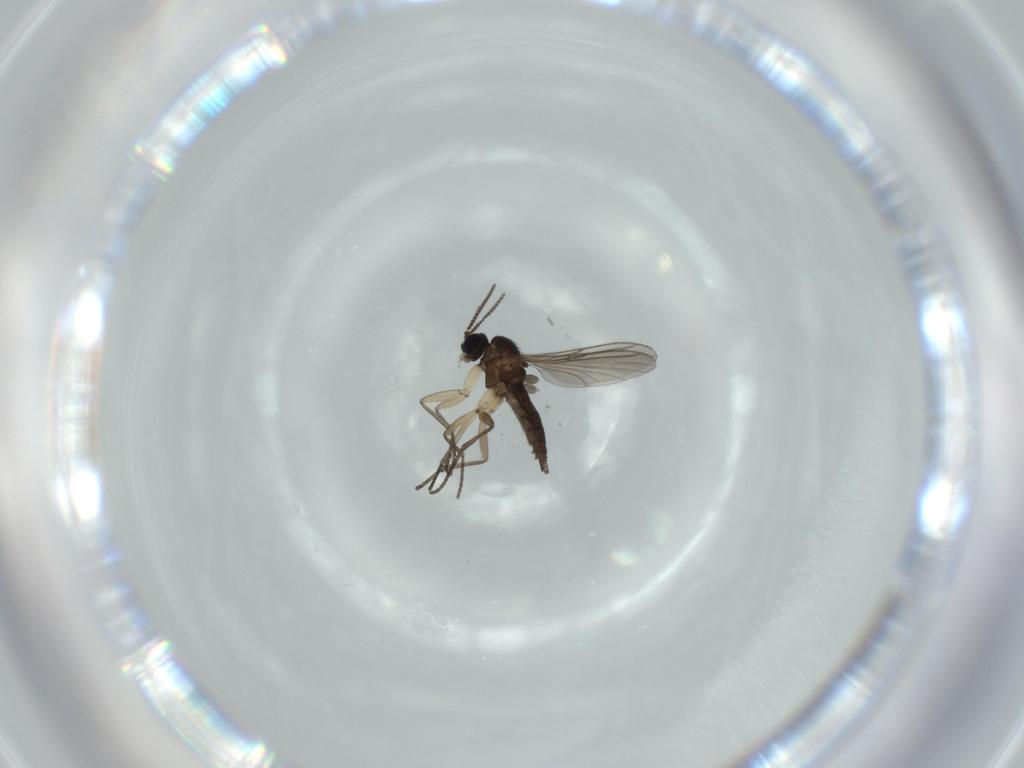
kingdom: Animalia
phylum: Arthropoda
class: Insecta
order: Diptera
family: Sciaridae
